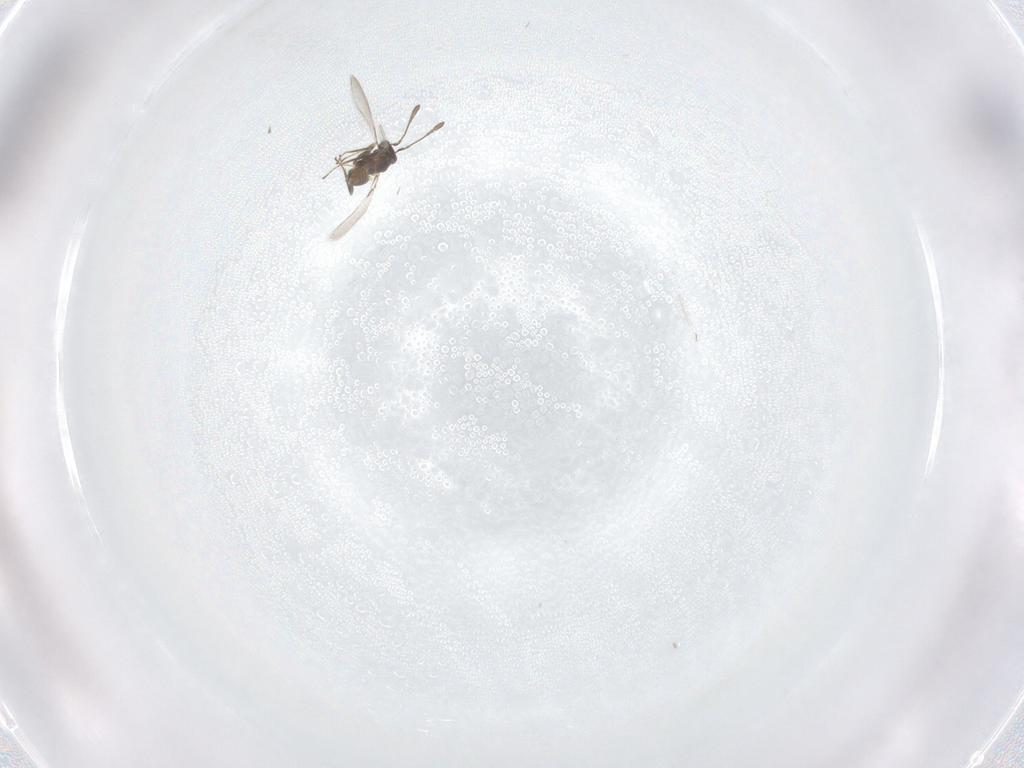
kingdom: Animalia
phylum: Arthropoda
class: Insecta
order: Hymenoptera
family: Mymaridae
